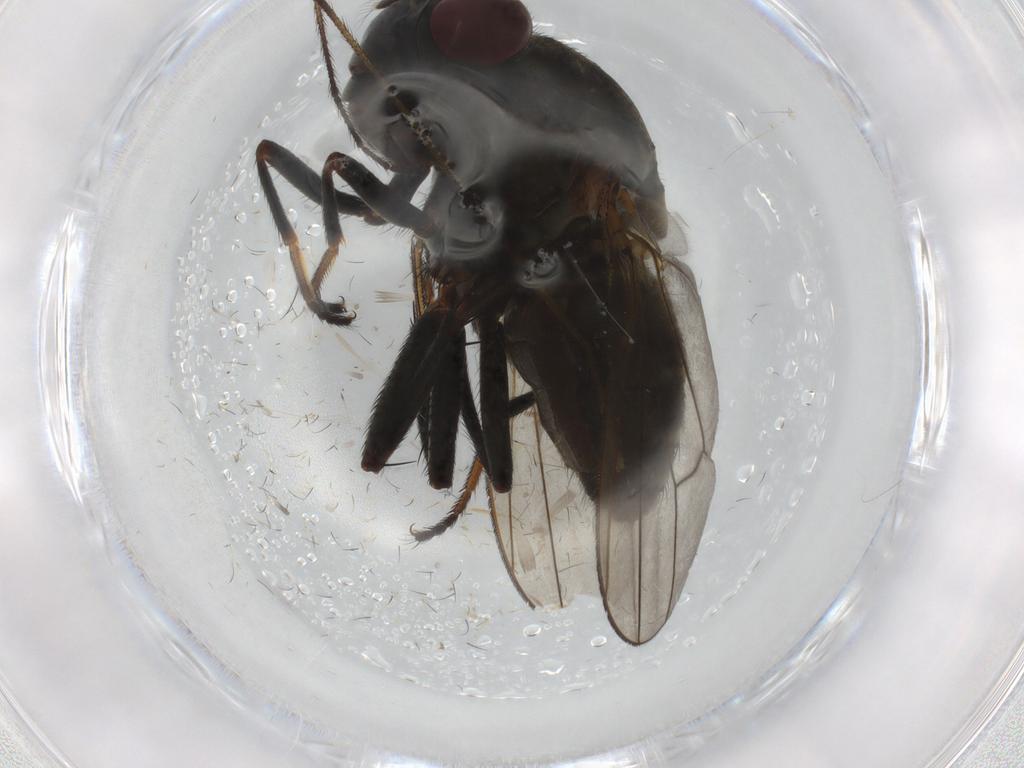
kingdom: Animalia
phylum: Arthropoda
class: Insecta
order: Diptera
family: Ephydridae
